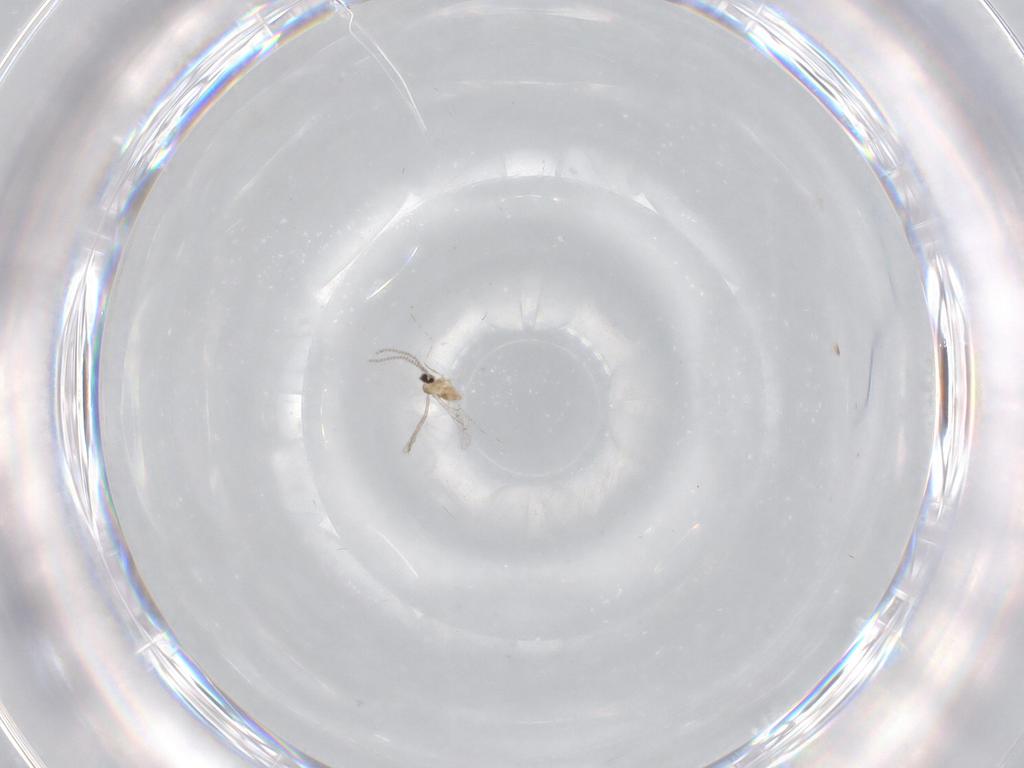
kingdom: Animalia
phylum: Arthropoda
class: Insecta
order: Diptera
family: Cecidomyiidae
